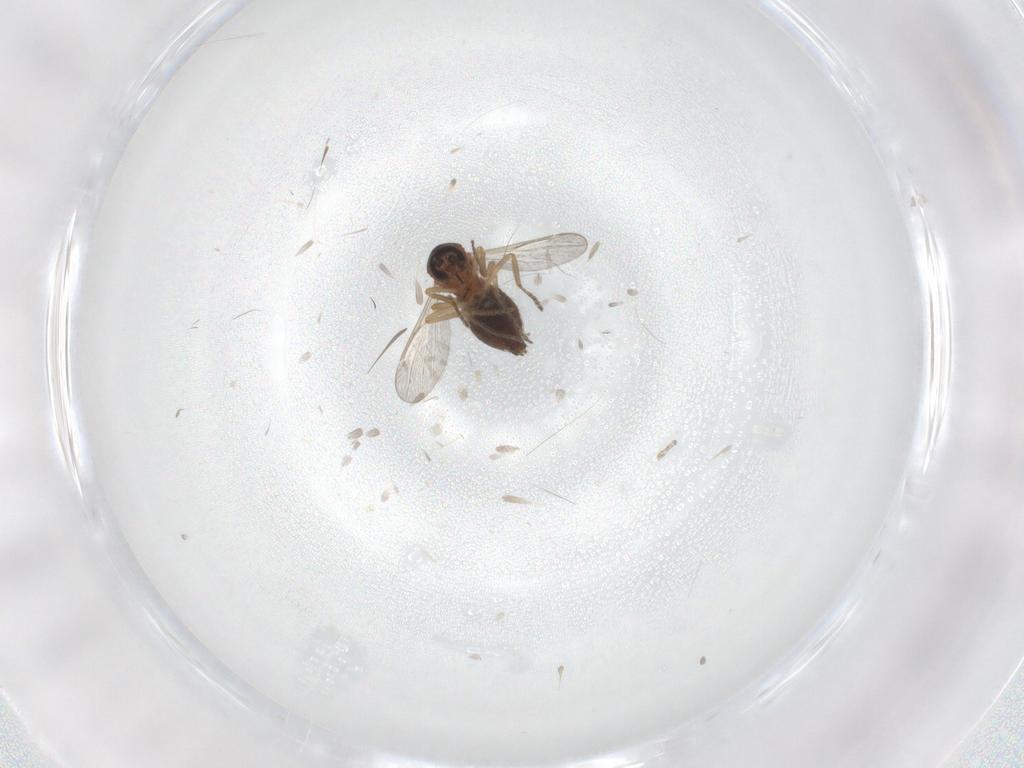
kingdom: Animalia
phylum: Arthropoda
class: Insecta
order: Diptera
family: Ceratopogonidae
